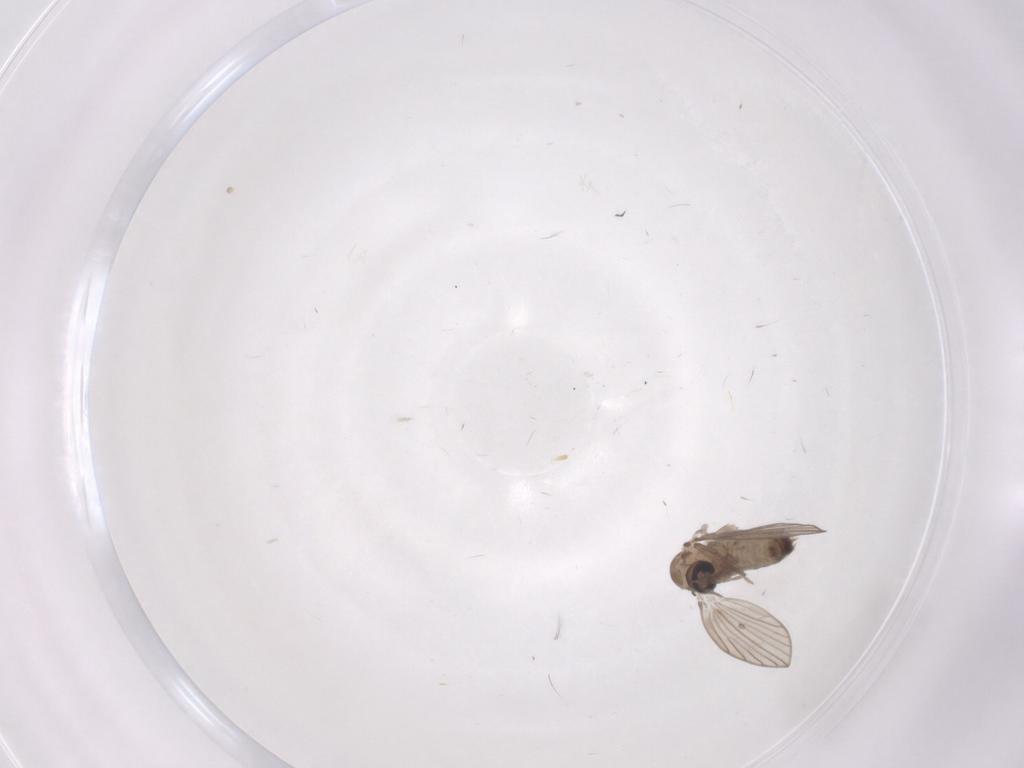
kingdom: Animalia
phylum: Arthropoda
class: Insecta
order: Diptera
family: Psychodidae
